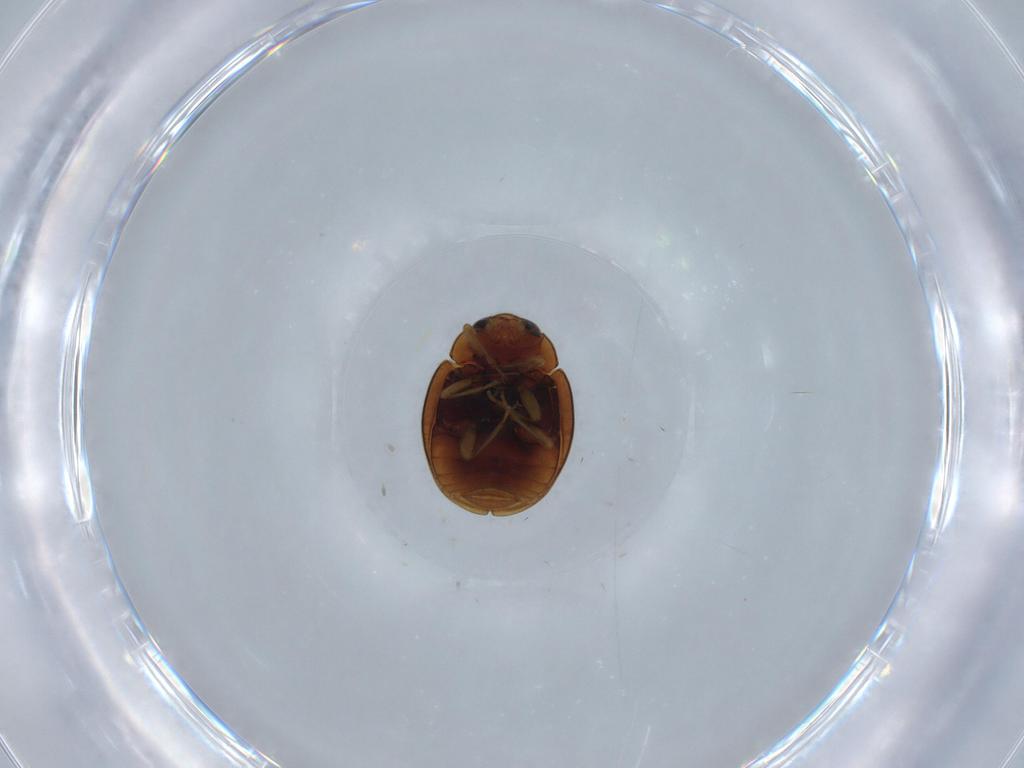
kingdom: Animalia
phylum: Arthropoda
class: Insecta
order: Coleoptera
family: Coccinellidae
